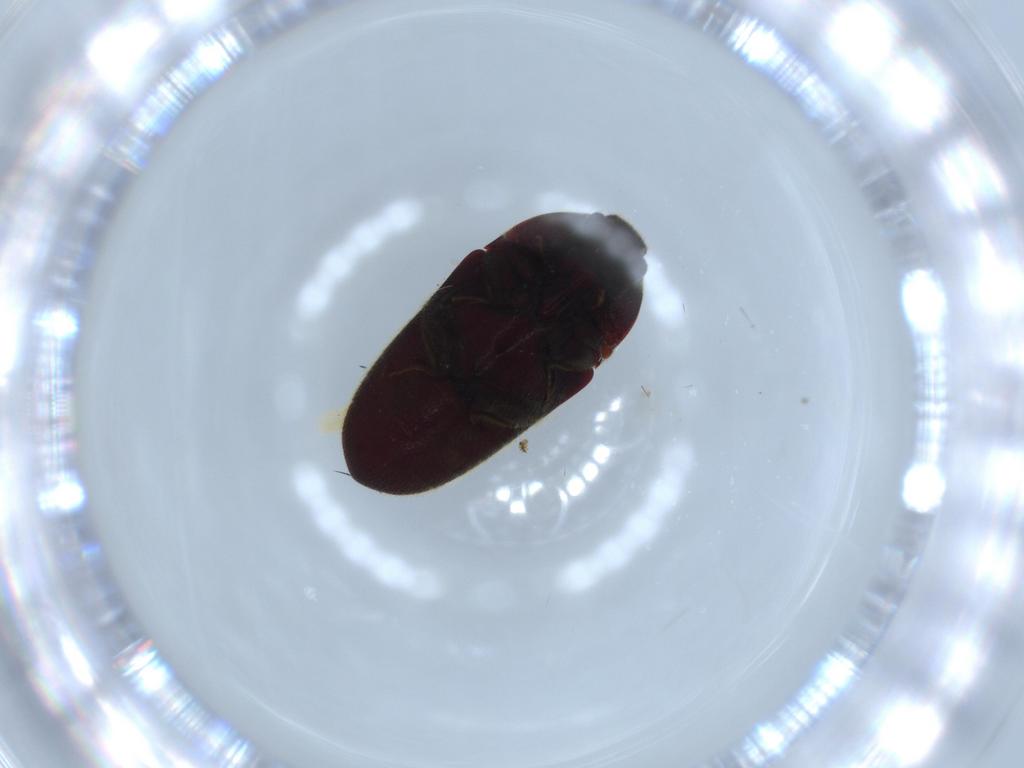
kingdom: Animalia
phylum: Arthropoda
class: Insecta
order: Coleoptera
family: Throscidae
